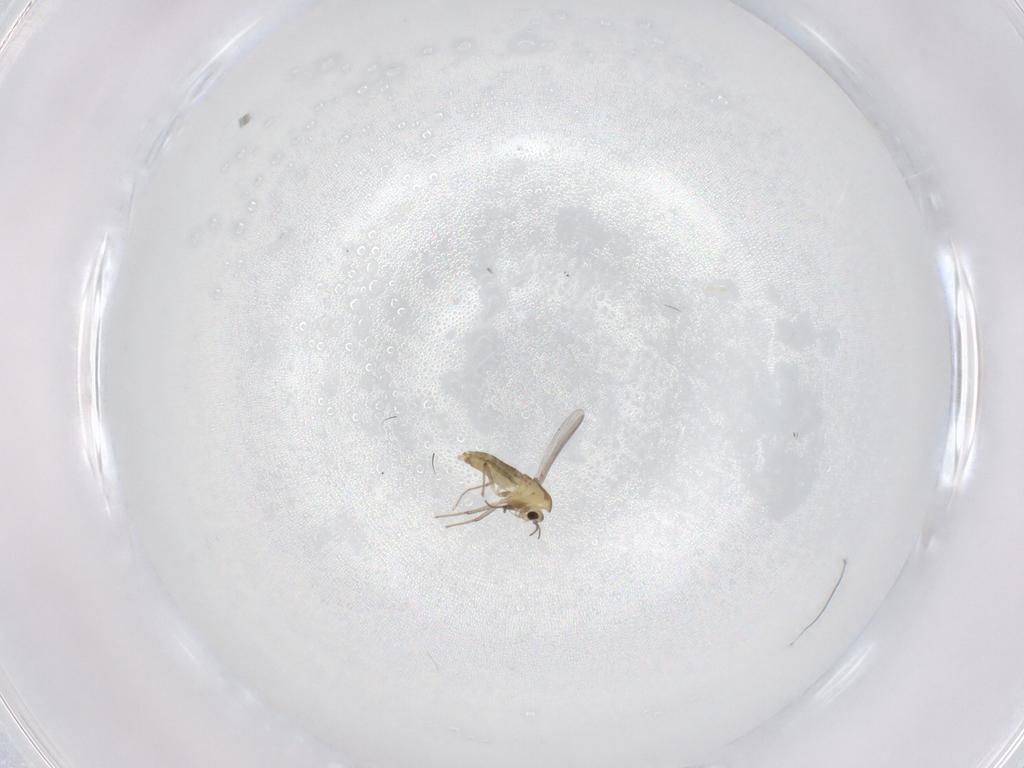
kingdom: Animalia
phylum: Arthropoda
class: Insecta
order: Diptera
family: Chironomidae
